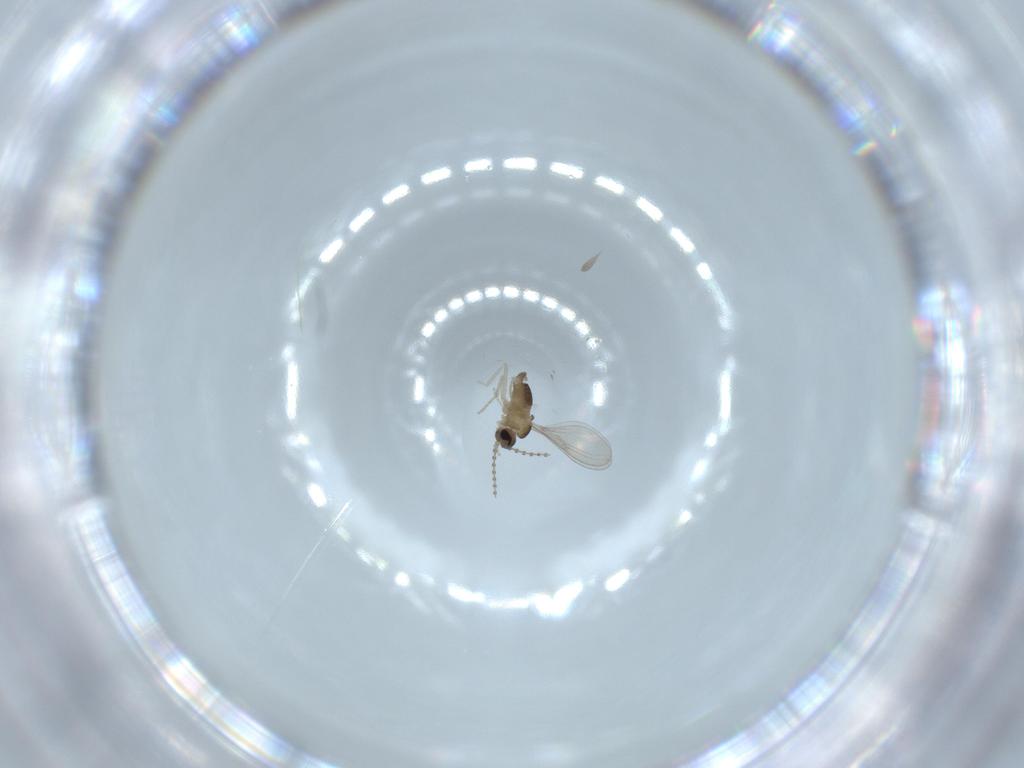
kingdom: Animalia
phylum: Arthropoda
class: Insecta
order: Diptera
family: Cecidomyiidae
